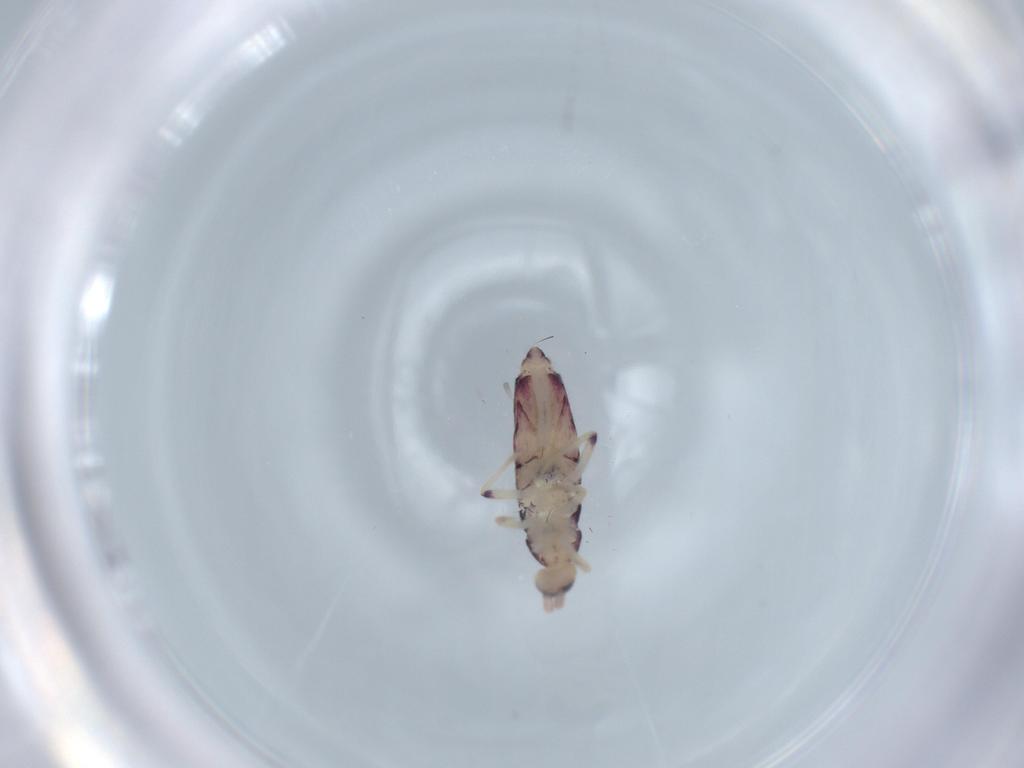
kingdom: Animalia
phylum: Arthropoda
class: Collembola
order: Entomobryomorpha
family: Entomobryidae
